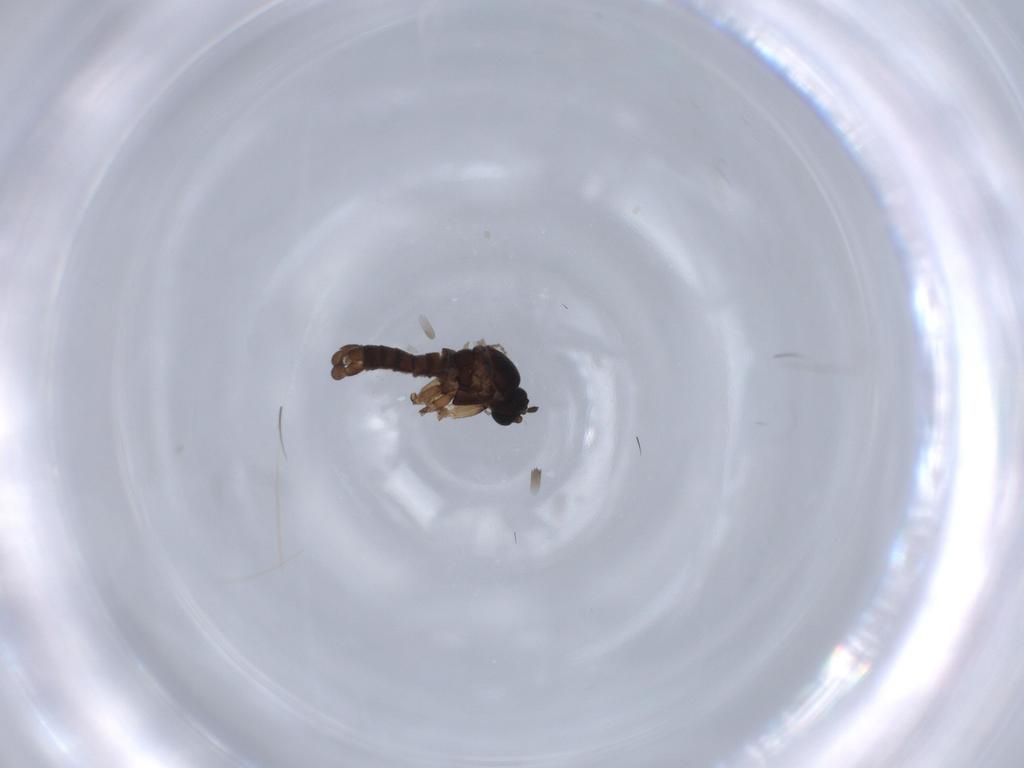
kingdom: Animalia
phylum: Arthropoda
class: Insecta
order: Diptera
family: Sciaridae
